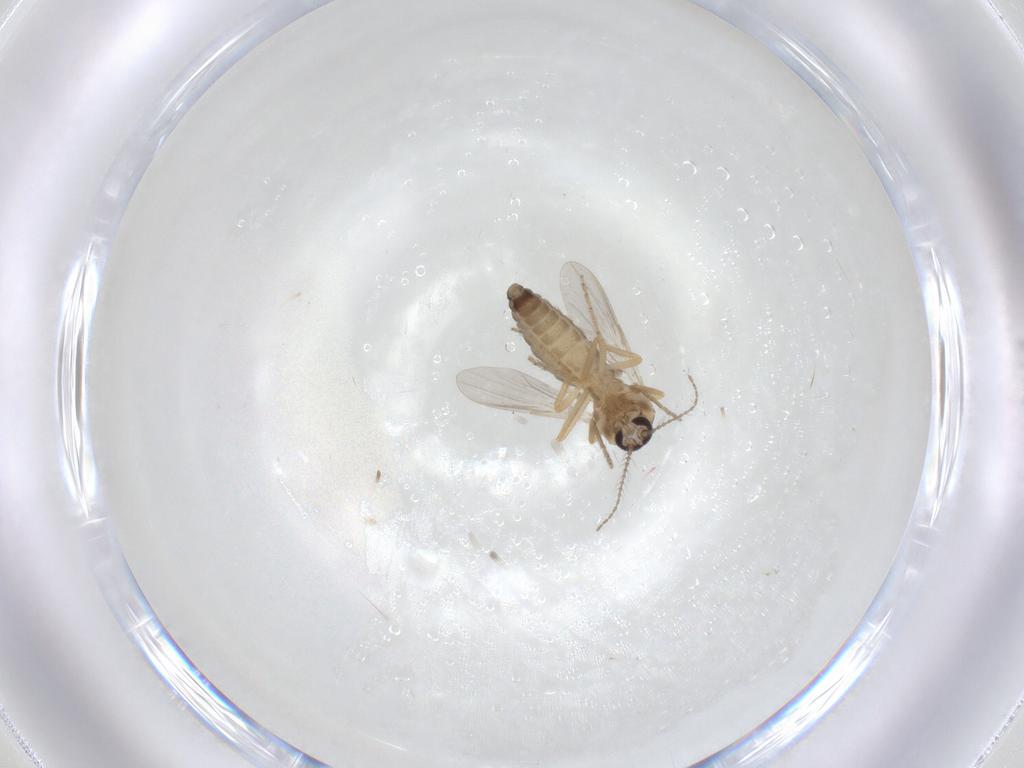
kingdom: Animalia
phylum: Arthropoda
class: Insecta
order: Diptera
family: Ceratopogonidae
